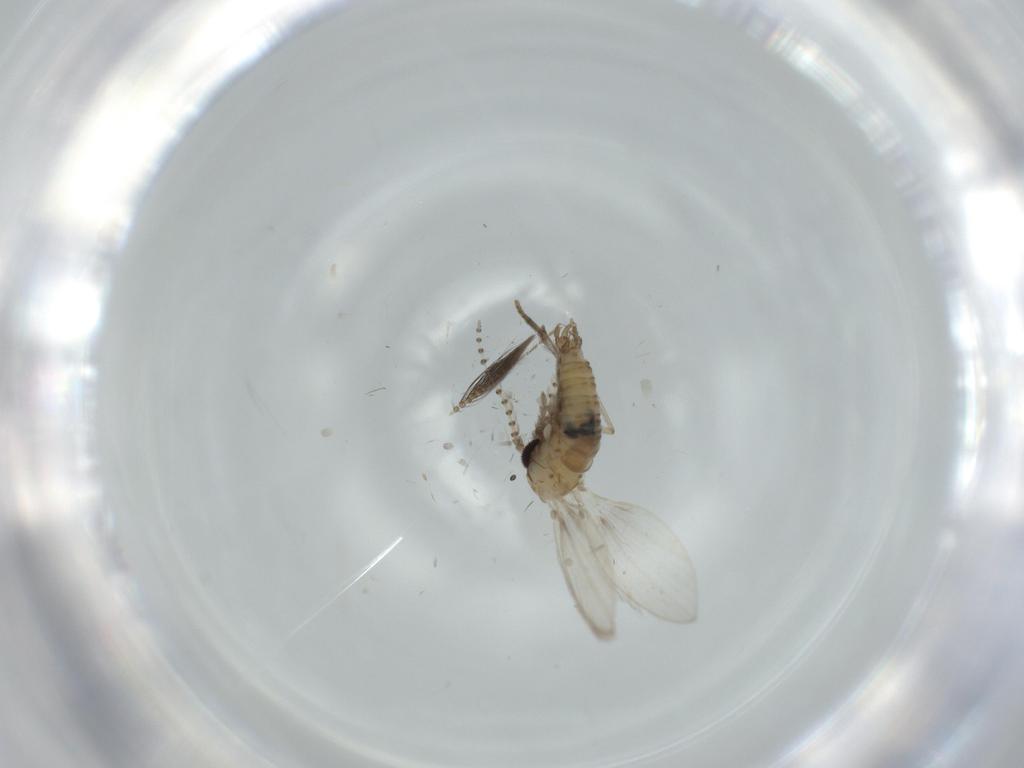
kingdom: Animalia
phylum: Arthropoda
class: Insecta
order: Diptera
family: Psychodidae
